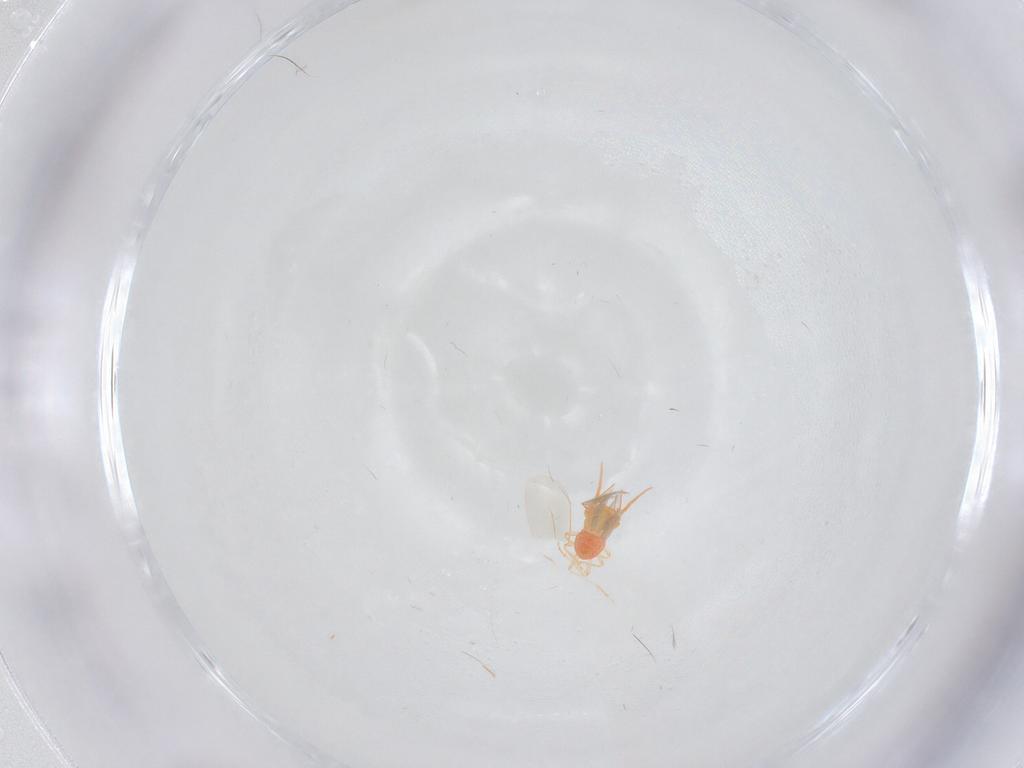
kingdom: Animalia
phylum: Arthropoda
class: Insecta
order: Hemiptera
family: Aleyrodidae
